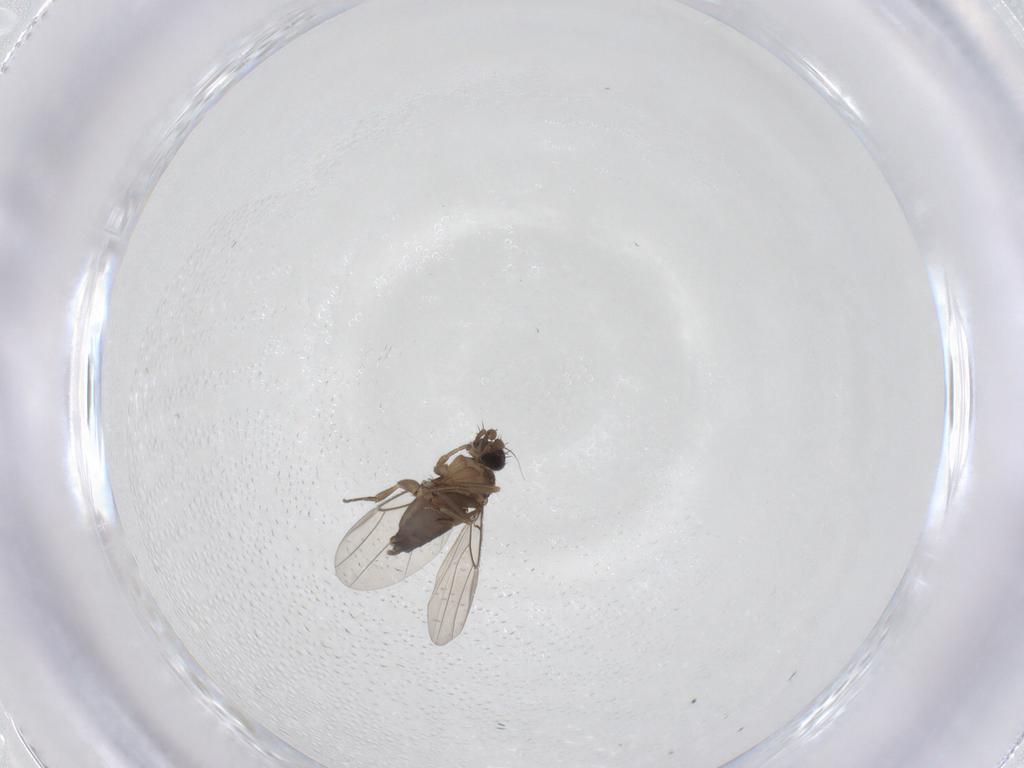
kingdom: Animalia
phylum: Arthropoda
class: Insecta
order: Diptera
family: Phoridae
